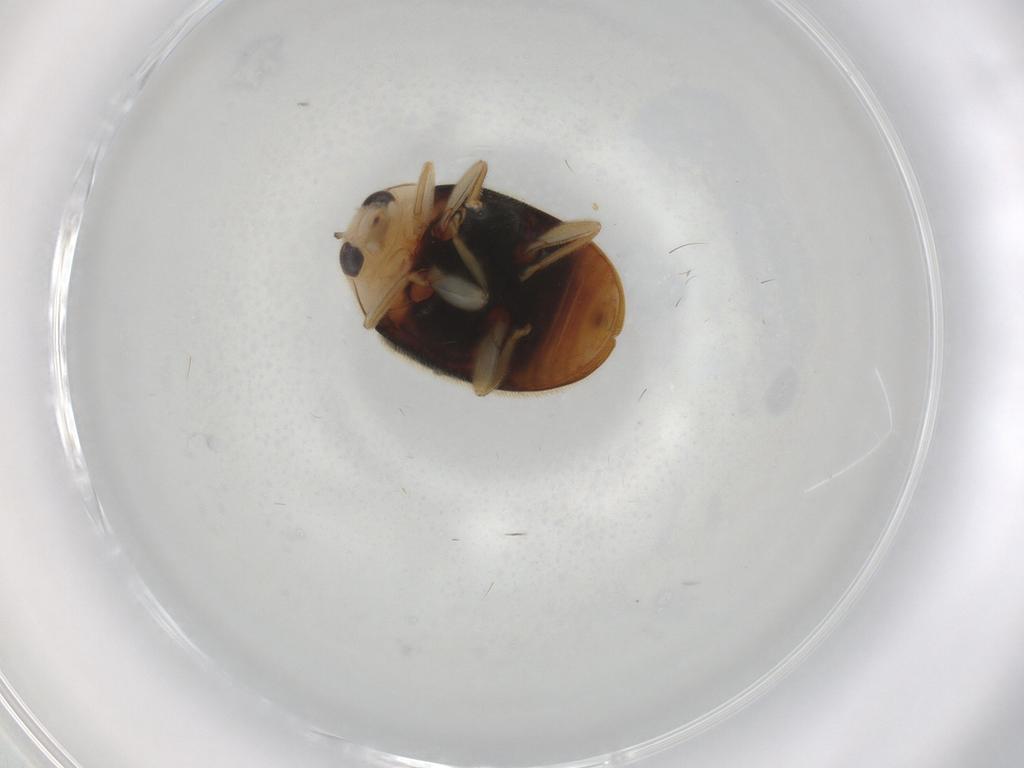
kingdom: Animalia
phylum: Arthropoda
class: Insecta
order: Coleoptera
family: Coccinellidae
